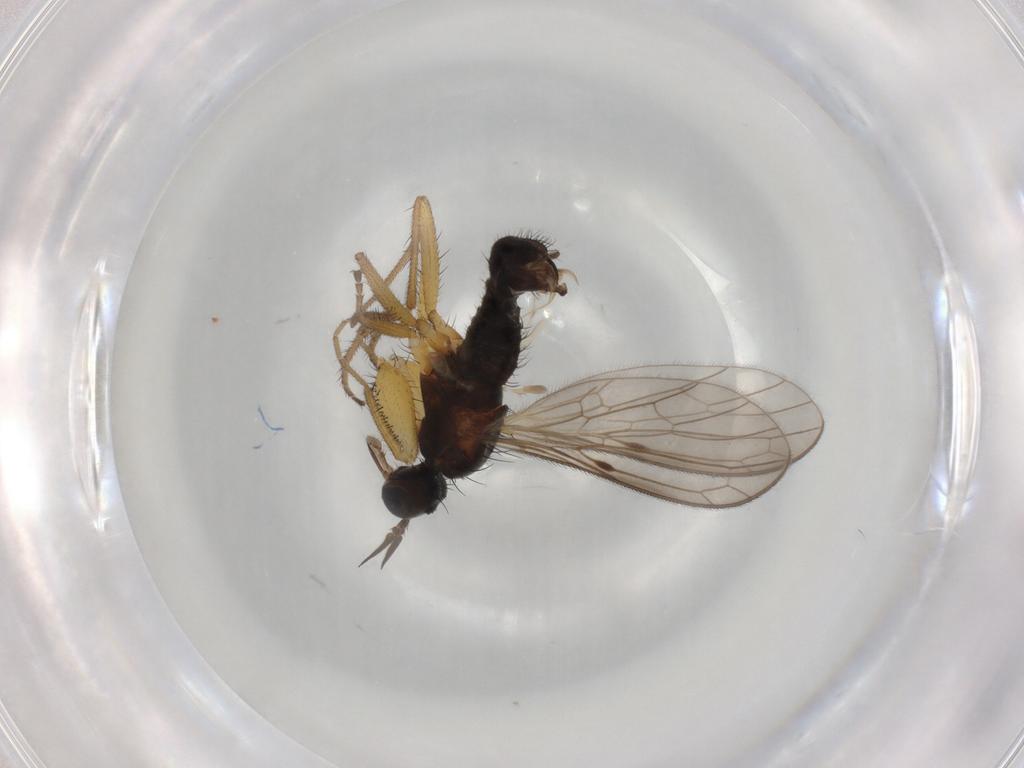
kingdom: Animalia
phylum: Arthropoda
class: Insecta
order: Diptera
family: Ceratopogonidae
